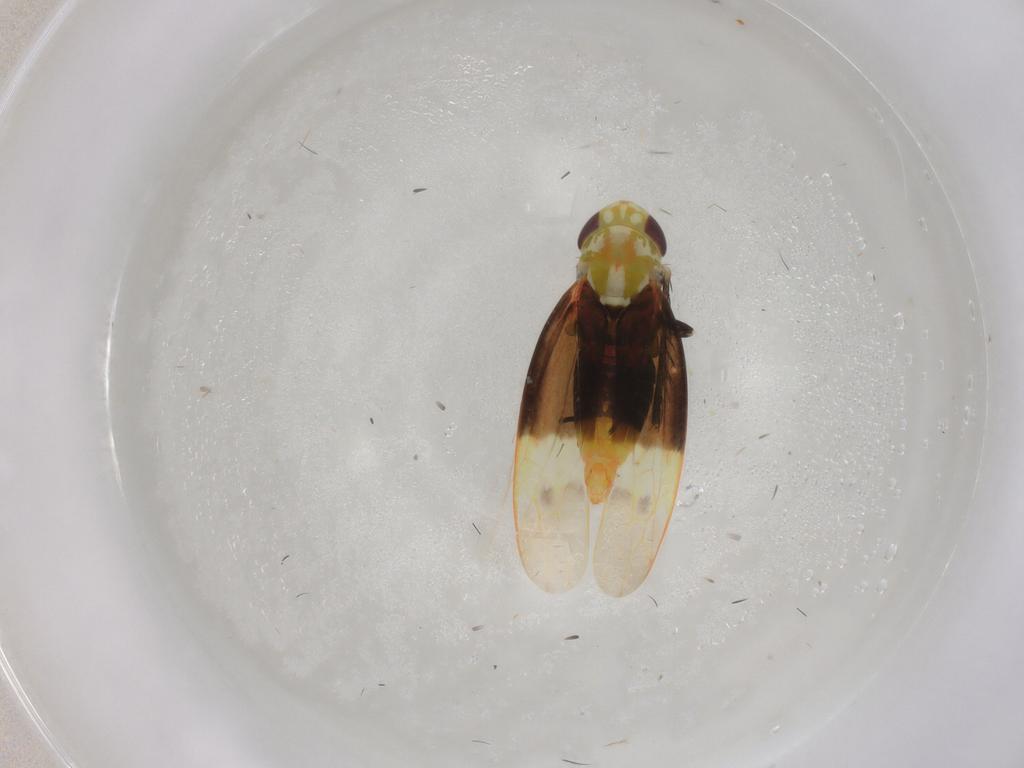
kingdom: Animalia
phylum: Arthropoda
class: Insecta
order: Hemiptera
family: Cicadellidae
